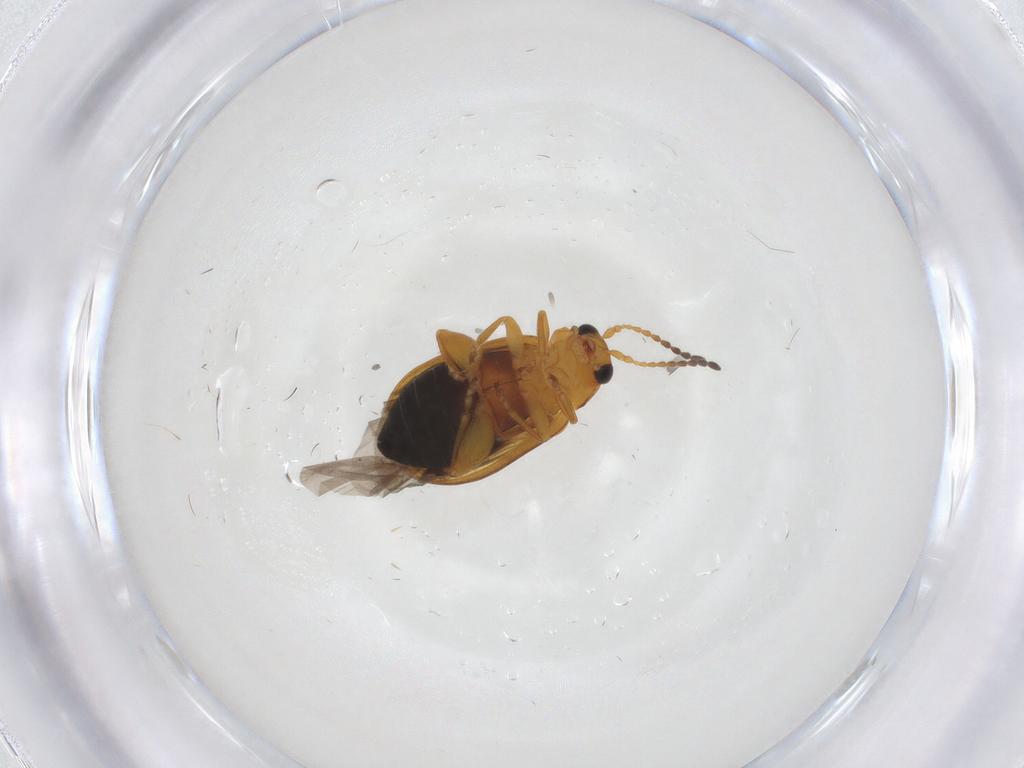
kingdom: Animalia
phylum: Arthropoda
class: Insecta
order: Coleoptera
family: Chrysomelidae
